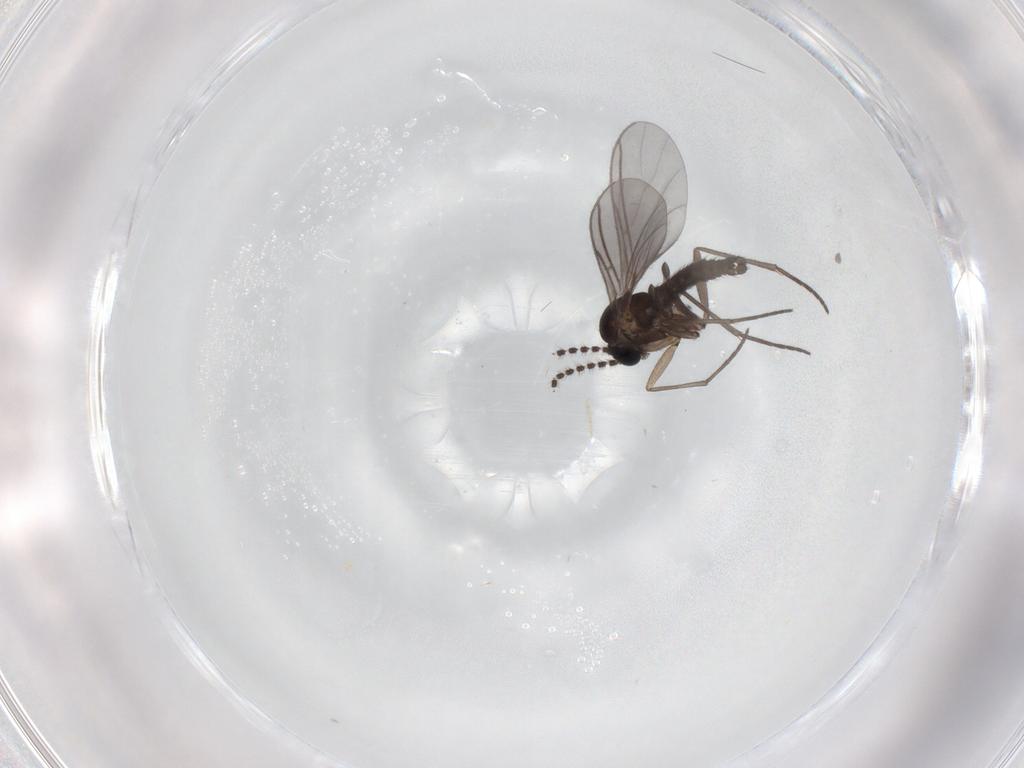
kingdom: Animalia
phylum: Arthropoda
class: Insecta
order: Diptera
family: Sciaridae
